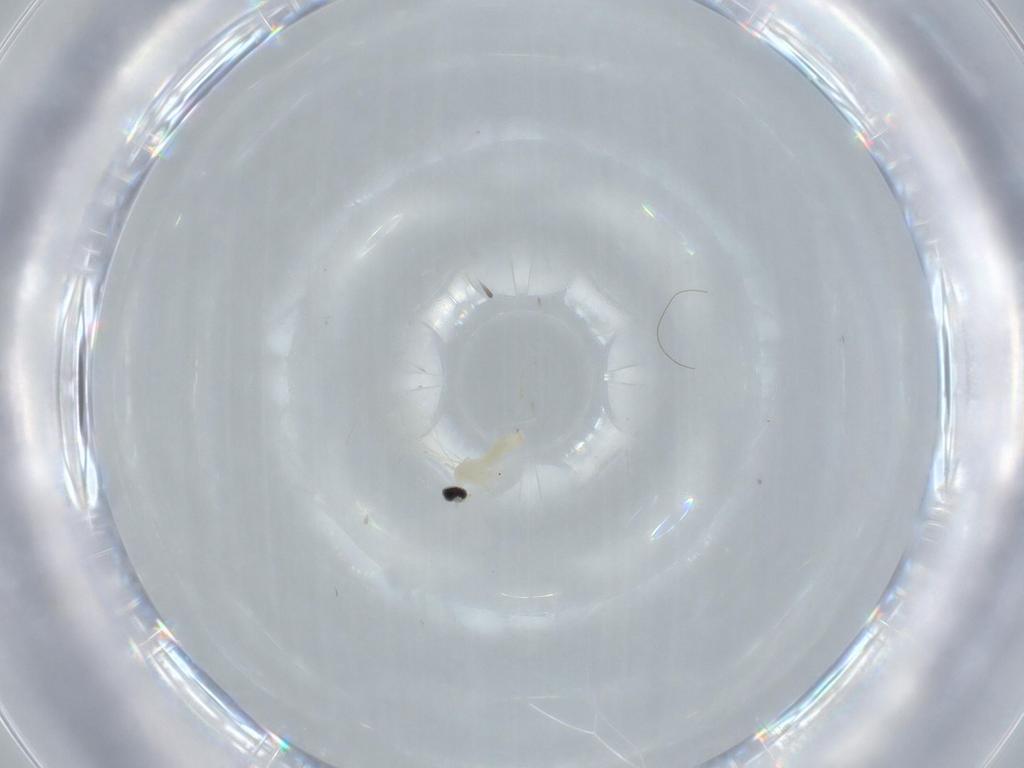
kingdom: Animalia
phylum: Arthropoda
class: Insecta
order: Diptera
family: Cecidomyiidae
